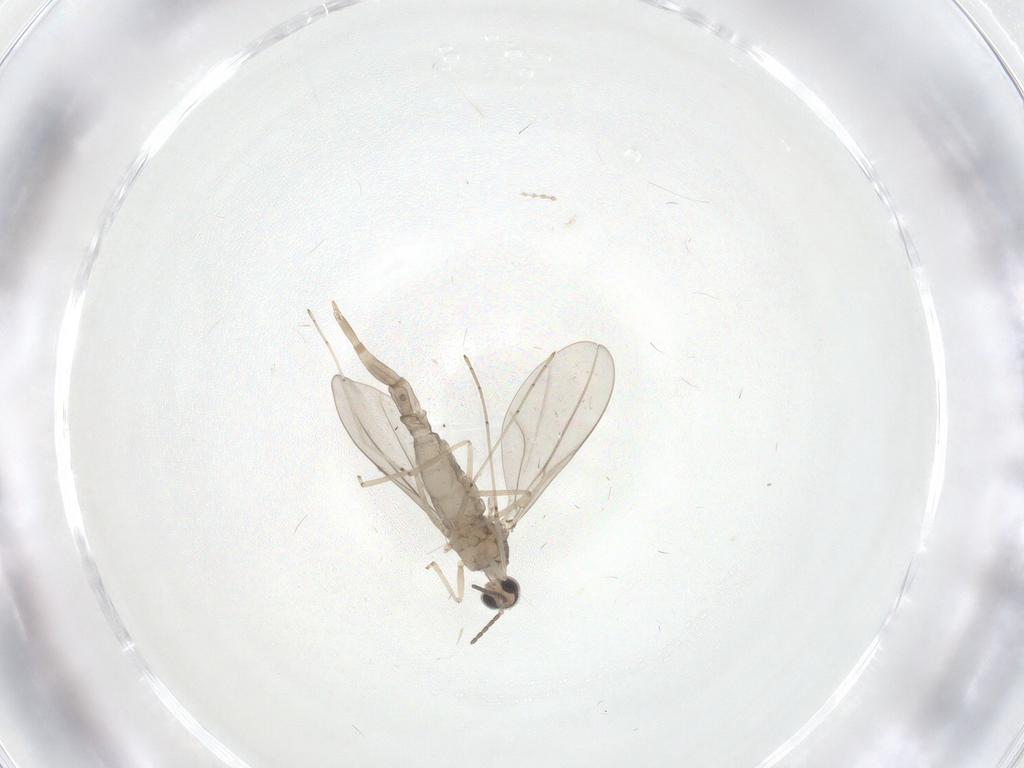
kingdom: Animalia
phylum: Arthropoda
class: Insecta
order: Diptera
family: Cecidomyiidae
